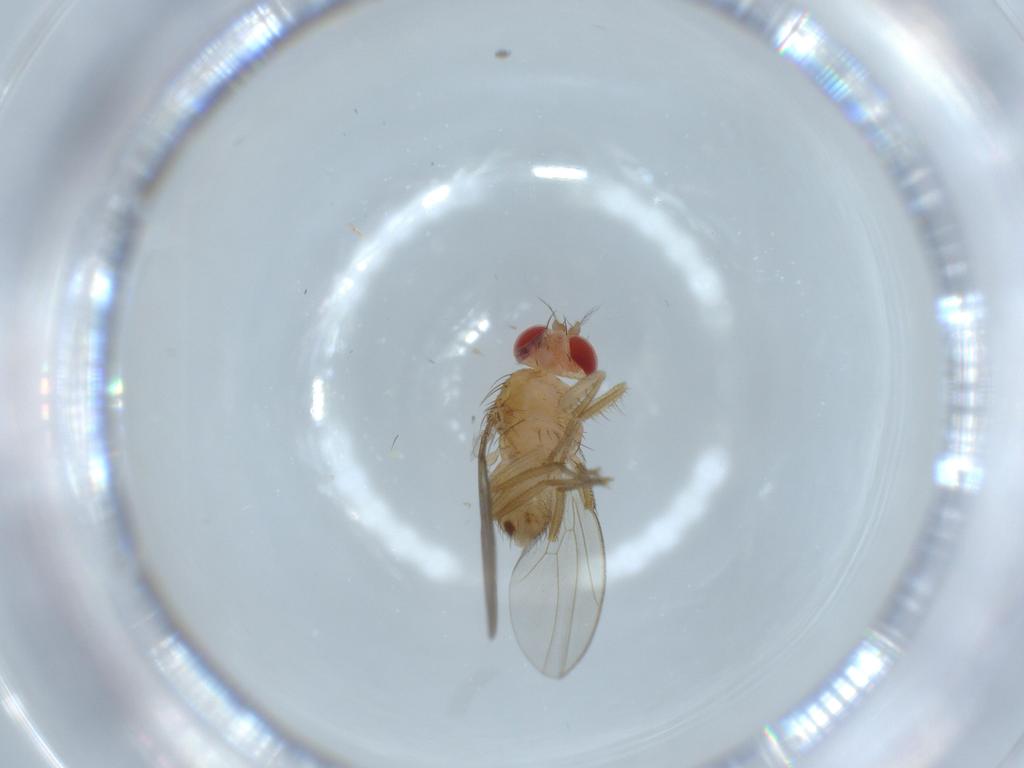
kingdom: Animalia
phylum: Arthropoda
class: Insecta
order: Diptera
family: Drosophilidae
